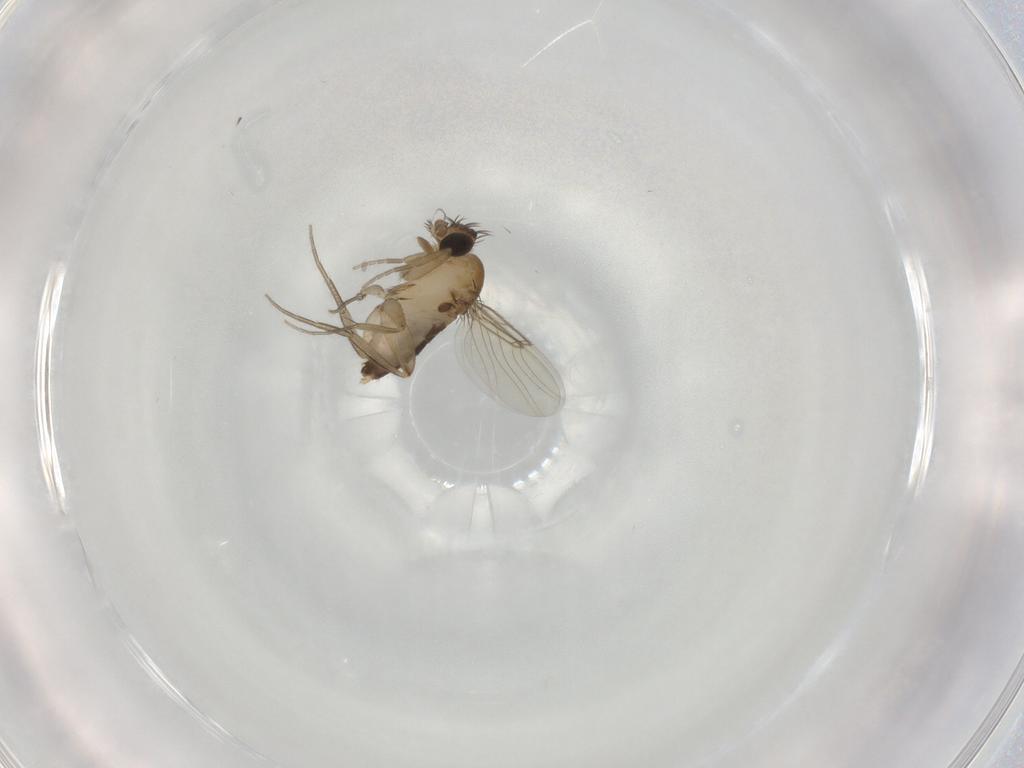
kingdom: Animalia
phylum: Arthropoda
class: Insecta
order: Diptera
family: Phoridae
